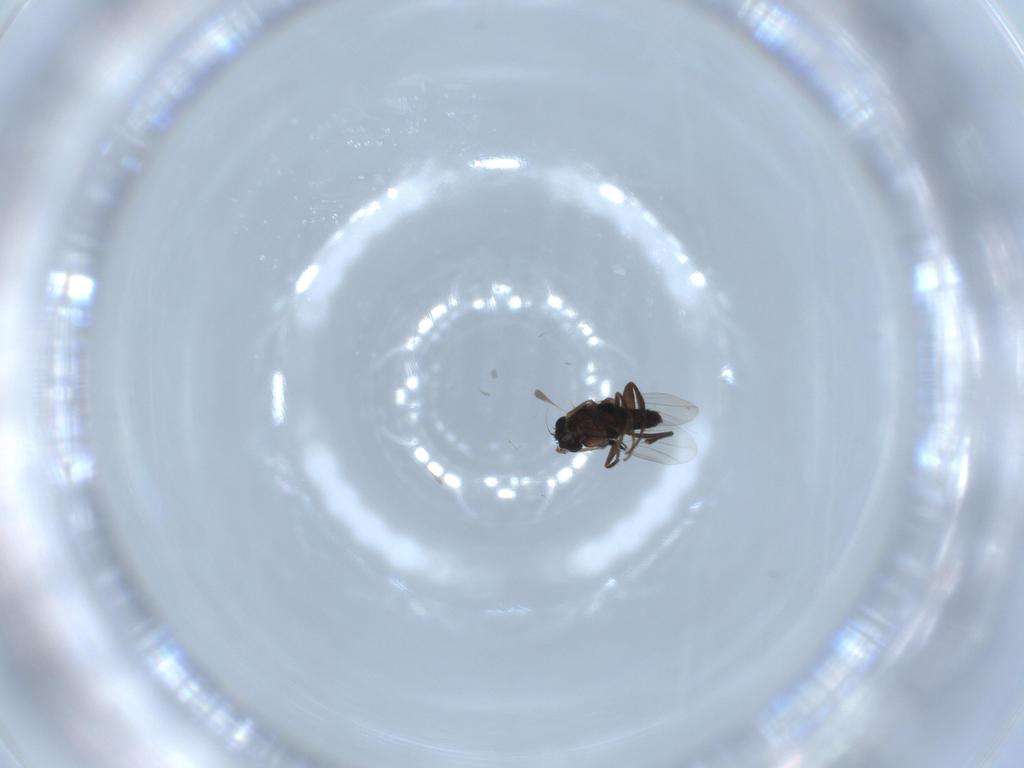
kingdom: Animalia
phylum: Arthropoda
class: Insecta
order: Diptera
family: Phoridae
